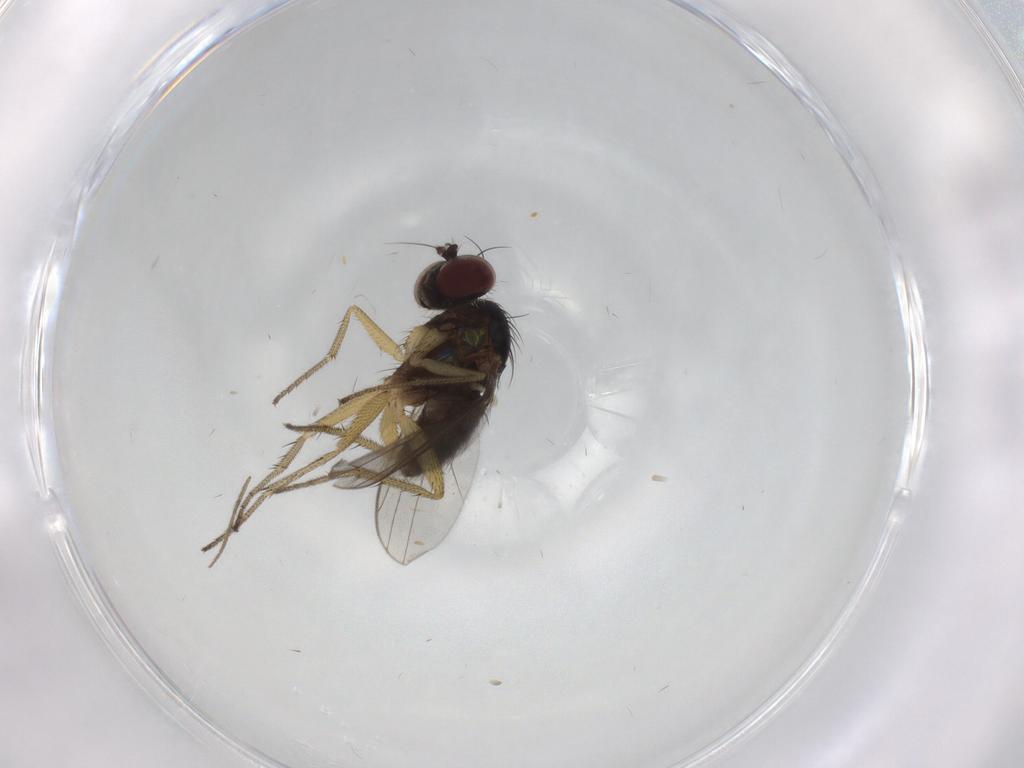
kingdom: Animalia
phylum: Arthropoda
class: Insecta
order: Diptera
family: Dolichopodidae
